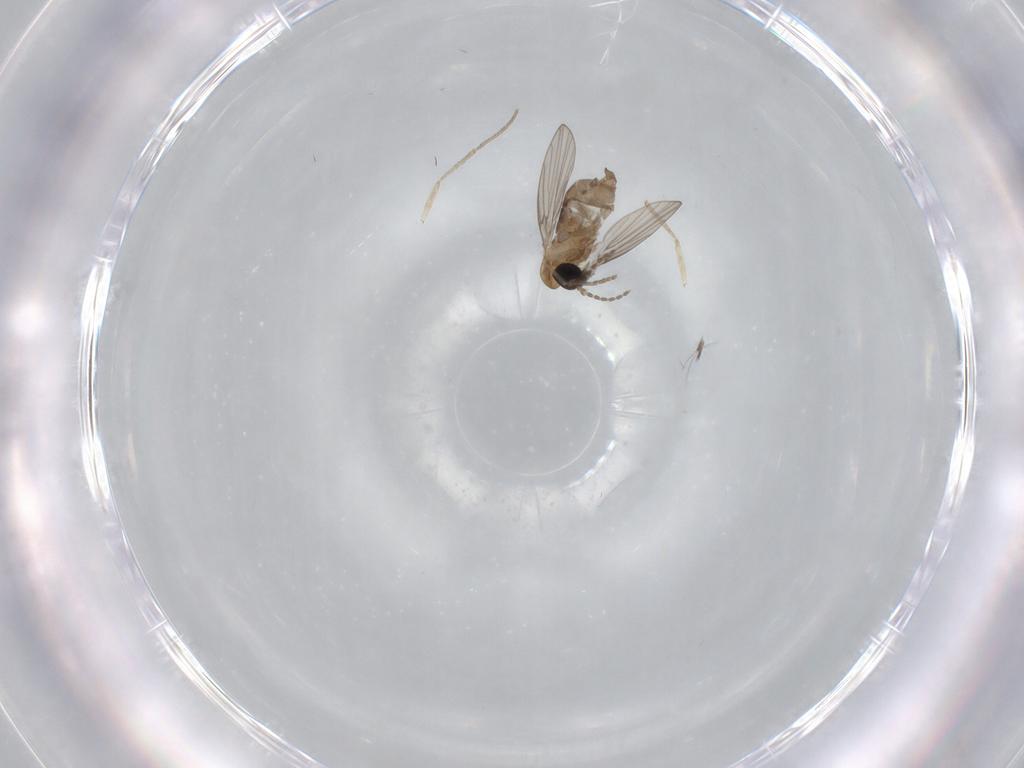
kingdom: Animalia
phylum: Arthropoda
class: Insecta
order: Diptera
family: Psychodidae
